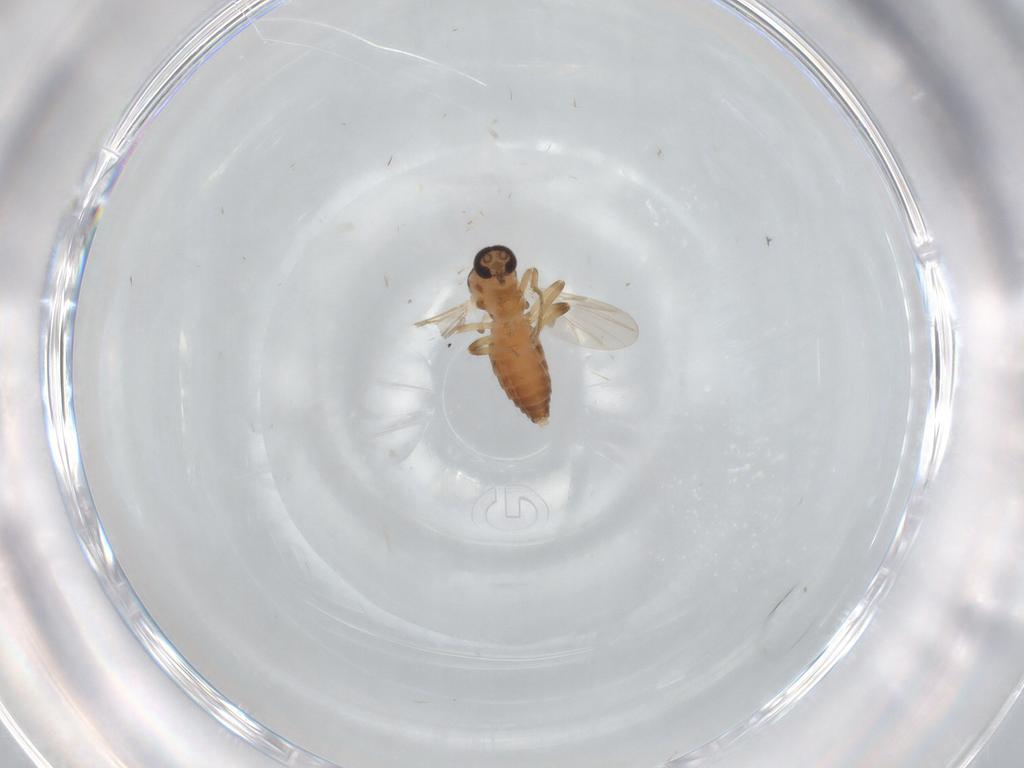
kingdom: Animalia
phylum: Arthropoda
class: Insecta
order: Diptera
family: Psychodidae
